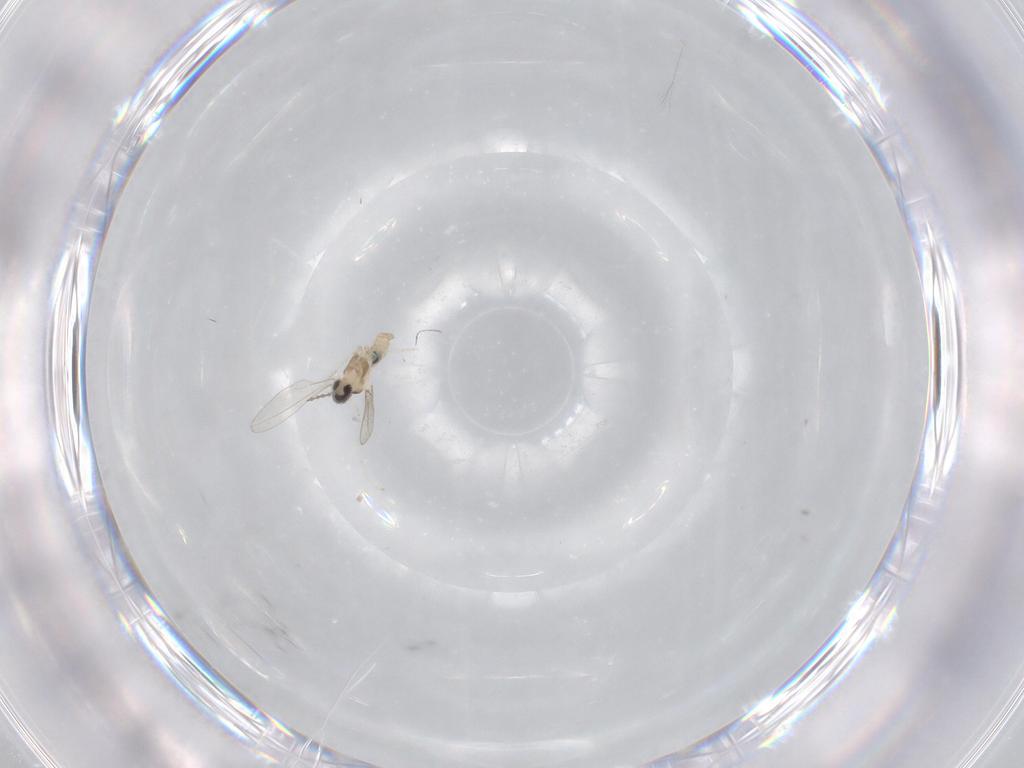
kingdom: Animalia
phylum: Arthropoda
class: Insecta
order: Diptera
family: Cecidomyiidae
